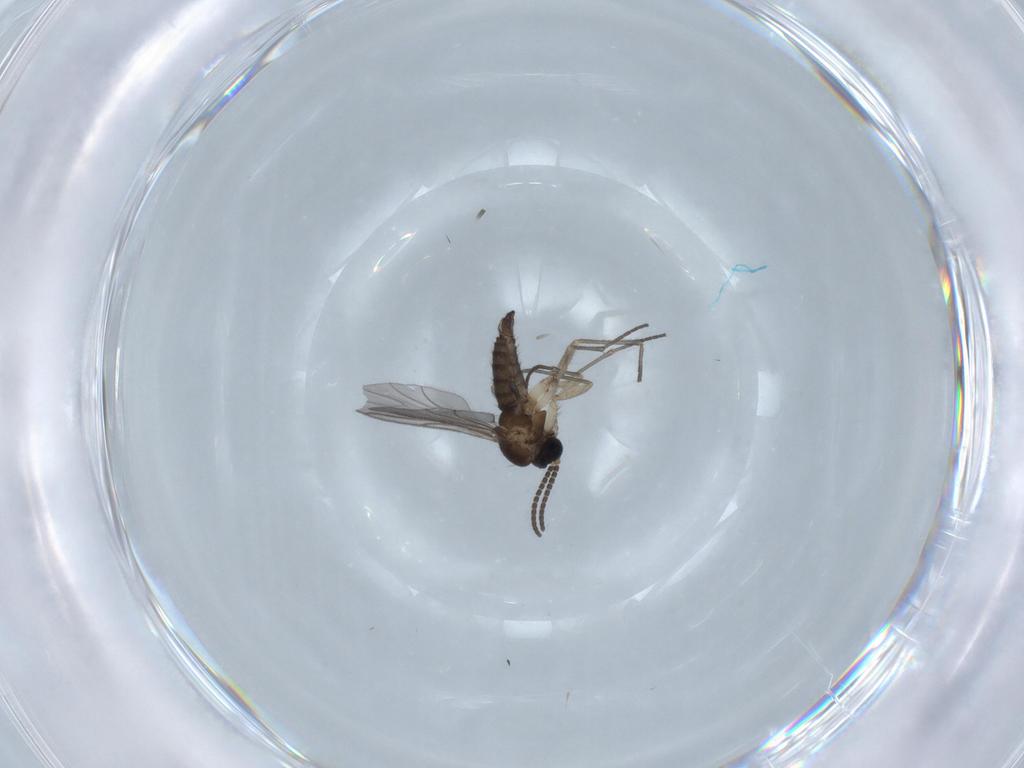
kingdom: Animalia
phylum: Arthropoda
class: Insecta
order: Diptera
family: Sciaridae
